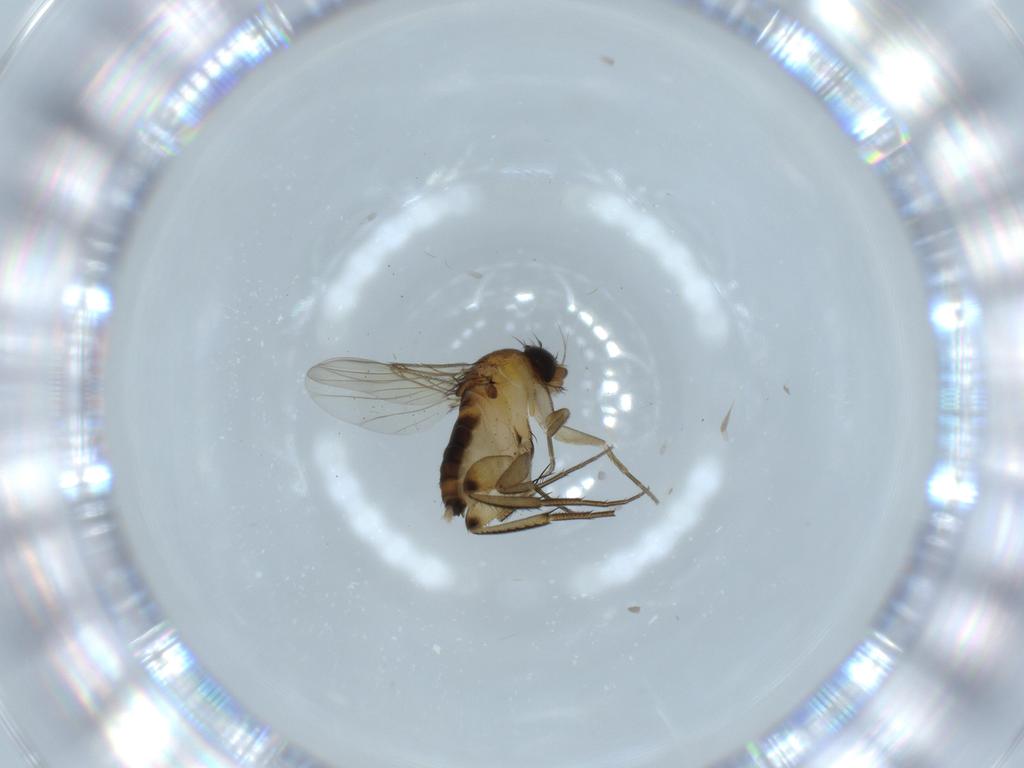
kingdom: Animalia
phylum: Arthropoda
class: Insecta
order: Diptera
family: Phoridae
